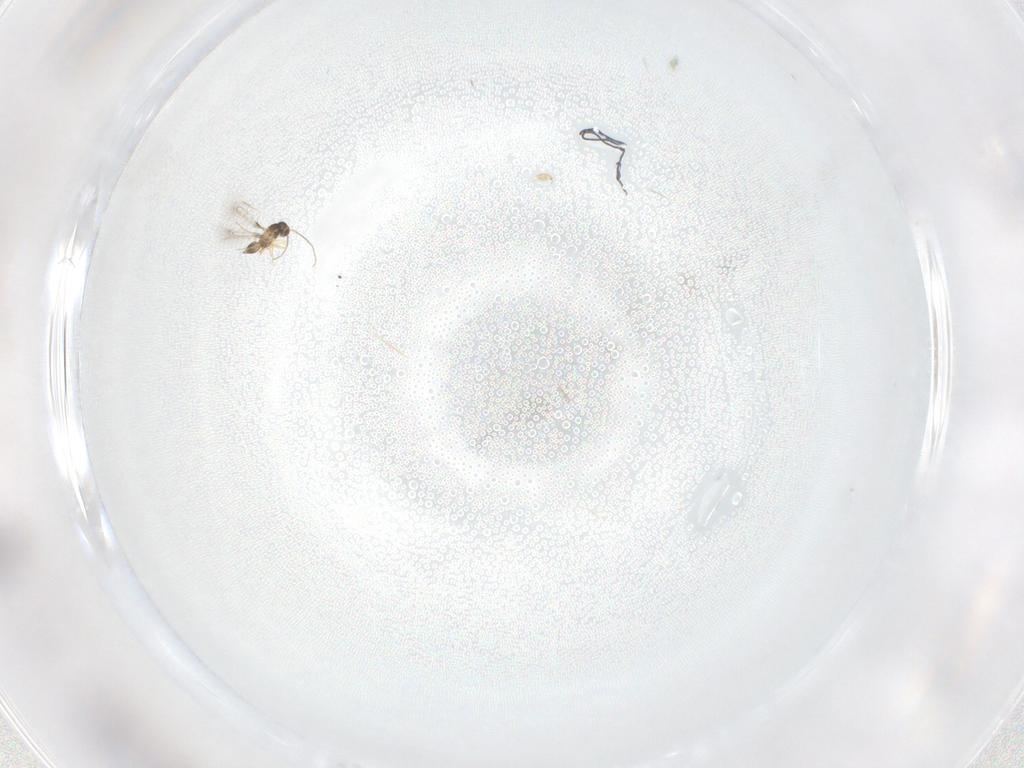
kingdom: Animalia
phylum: Arthropoda
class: Insecta
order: Hymenoptera
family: Mymaridae
